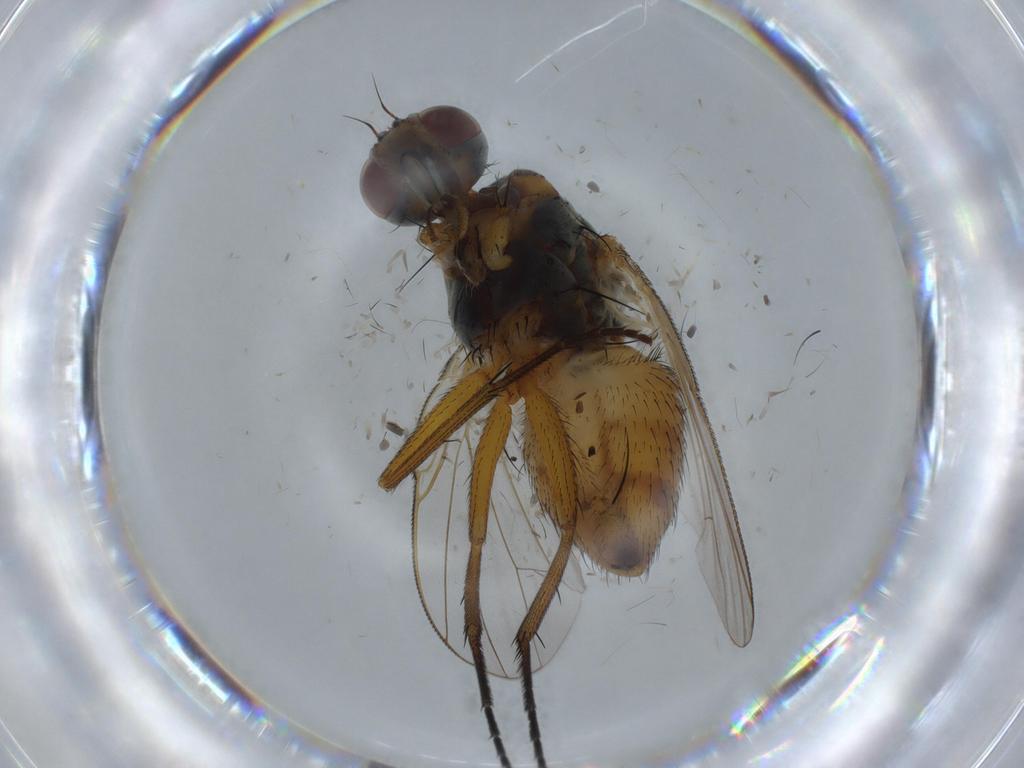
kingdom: Animalia
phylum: Arthropoda
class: Insecta
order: Diptera
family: Muscidae
